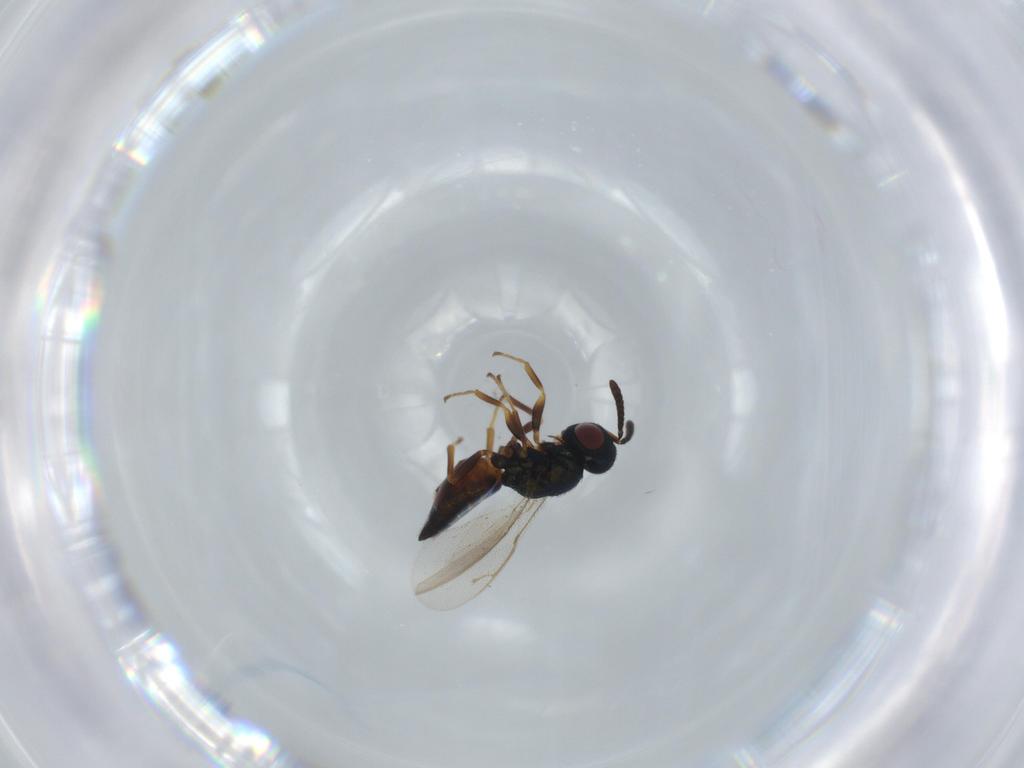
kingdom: Animalia
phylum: Arthropoda
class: Insecta
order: Hymenoptera
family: Pteromalidae
